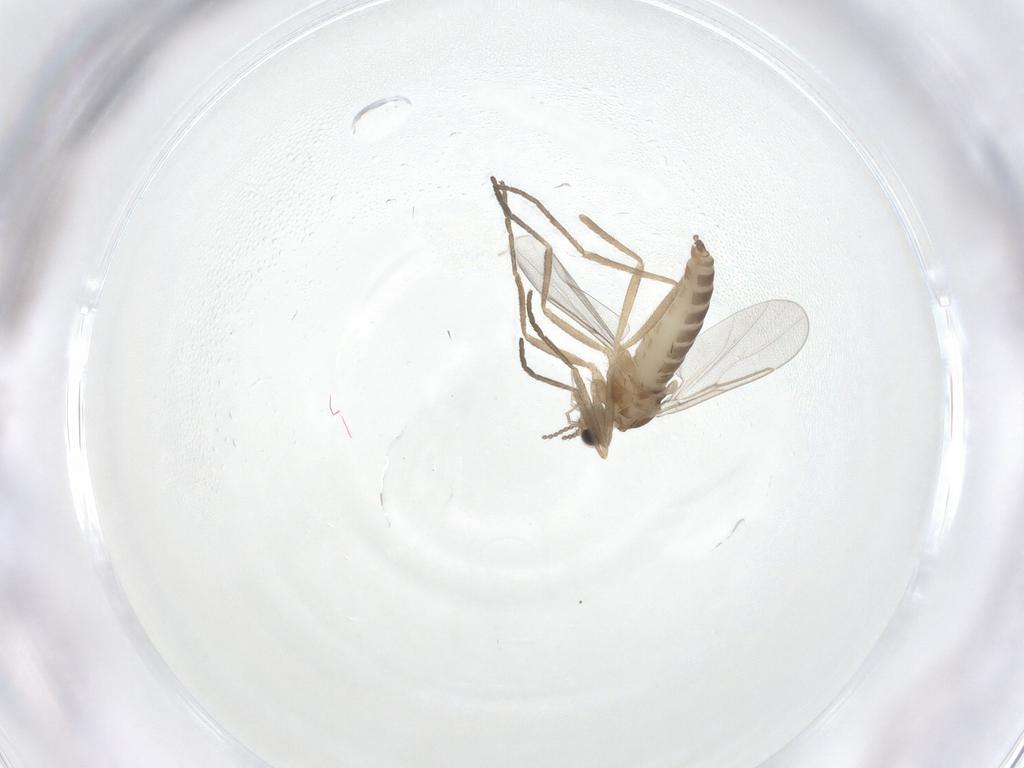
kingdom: Animalia
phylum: Arthropoda
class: Insecta
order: Diptera
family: Cecidomyiidae
